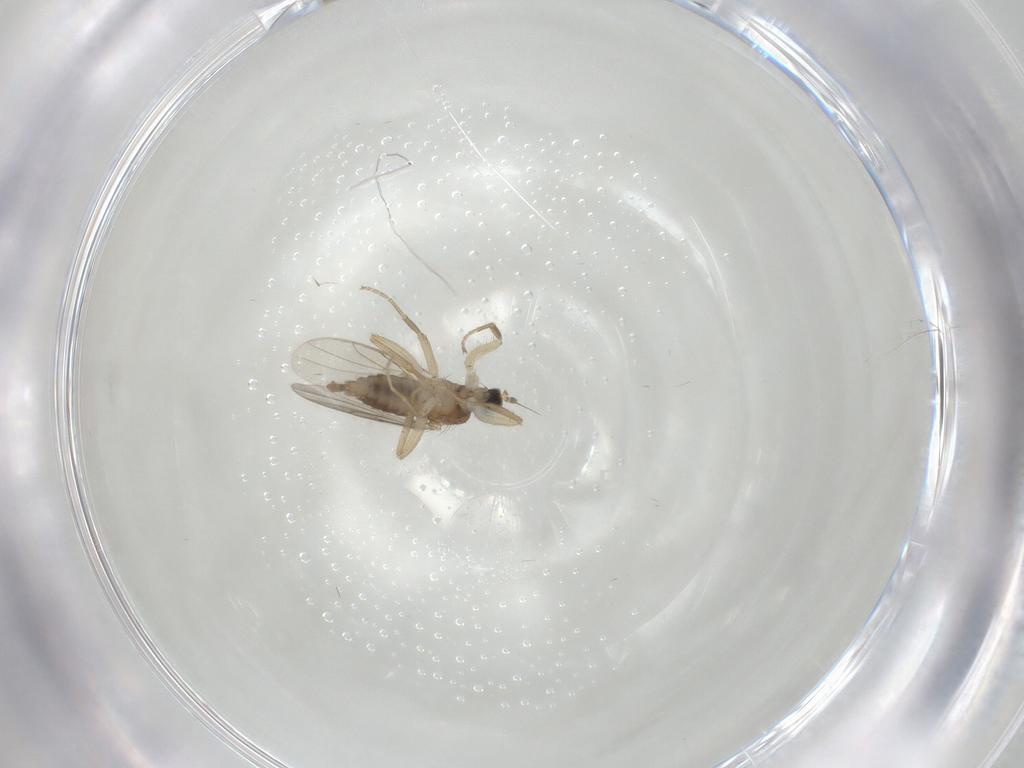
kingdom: Animalia
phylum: Arthropoda
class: Insecta
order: Diptera
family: Hybotidae
